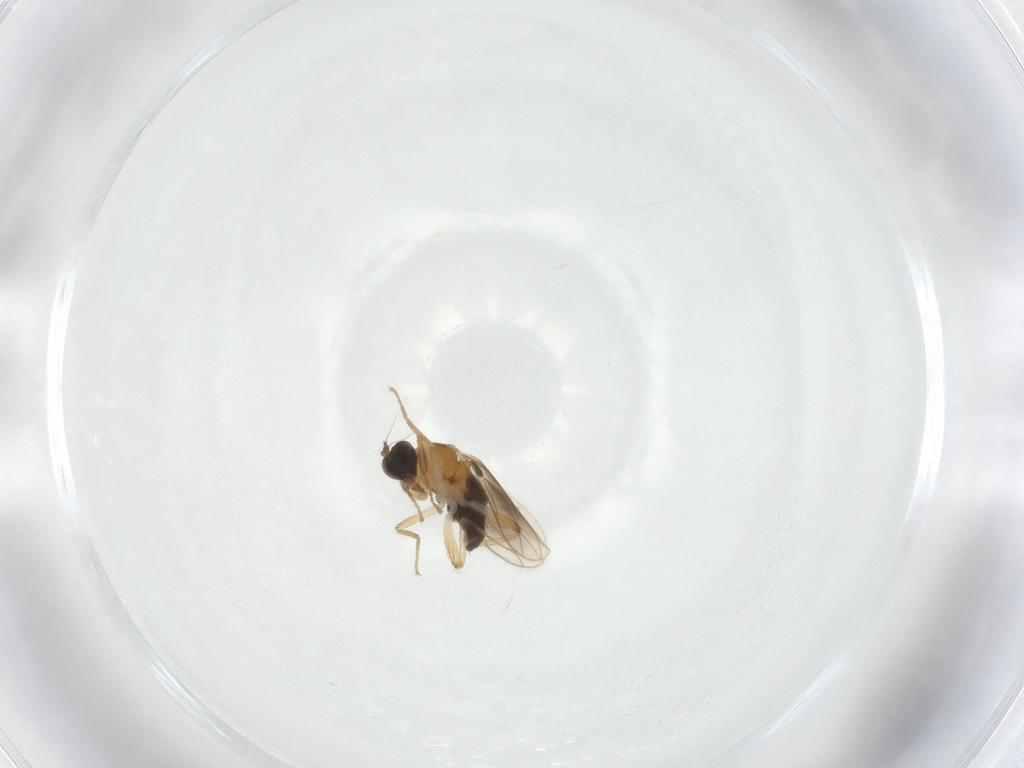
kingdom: Animalia
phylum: Arthropoda
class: Insecta
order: Diptera
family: Hybotidae
